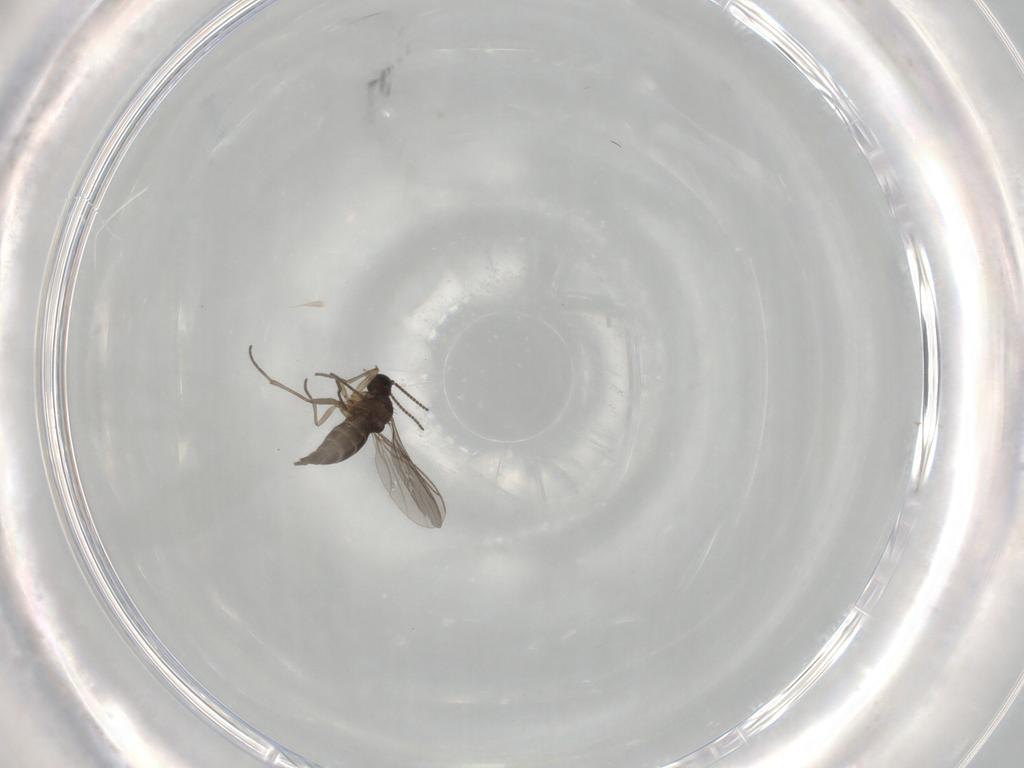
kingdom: Animalia
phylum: Arthropoda
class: Insecta
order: Diptera
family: Sciaridae
